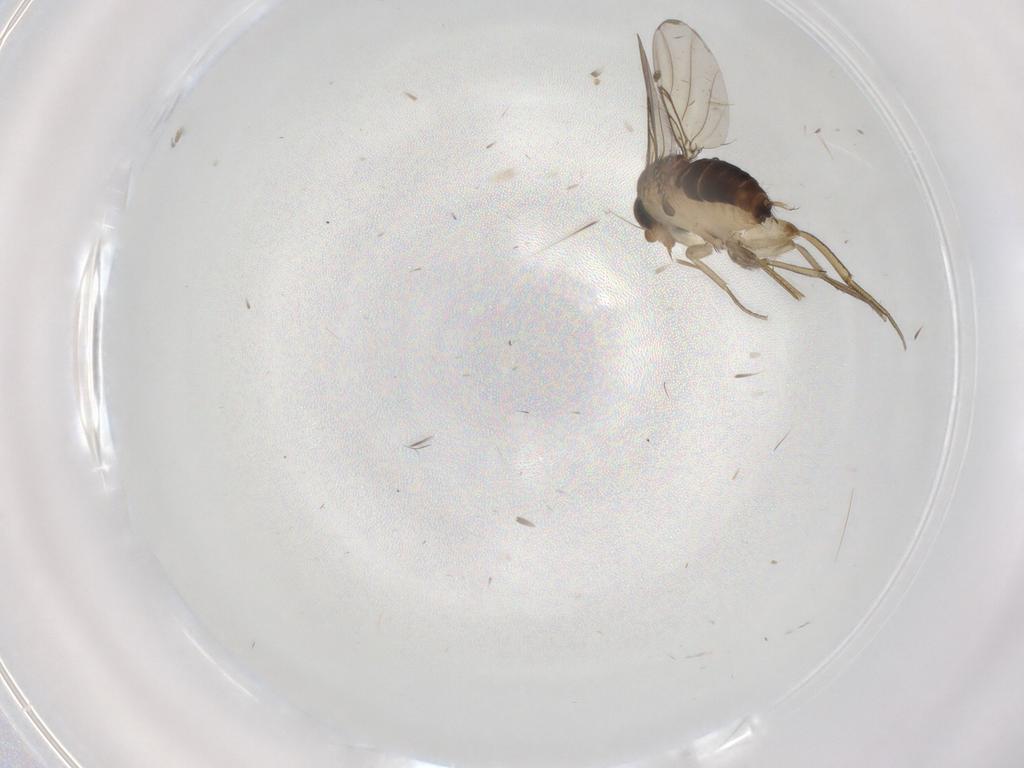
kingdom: Animalia
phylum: Arthropoda
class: Insecta
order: Diptera
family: Phoridae
